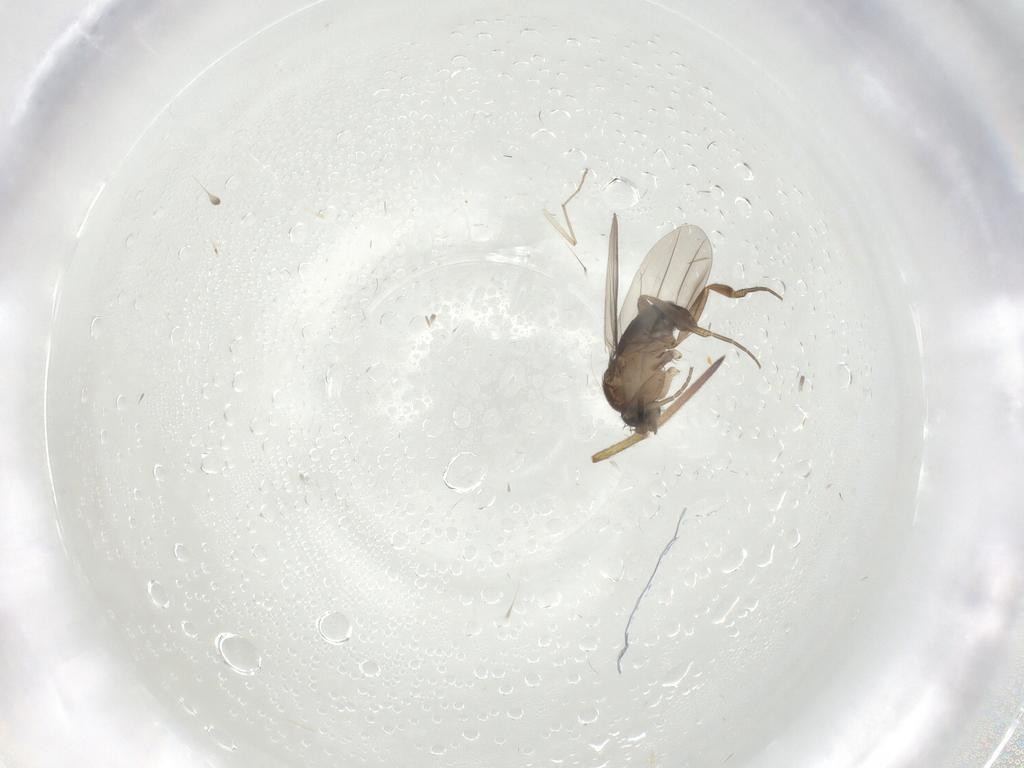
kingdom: Animalia
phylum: Arthropoda
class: Insecta
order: Diptera
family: Chironomidae
